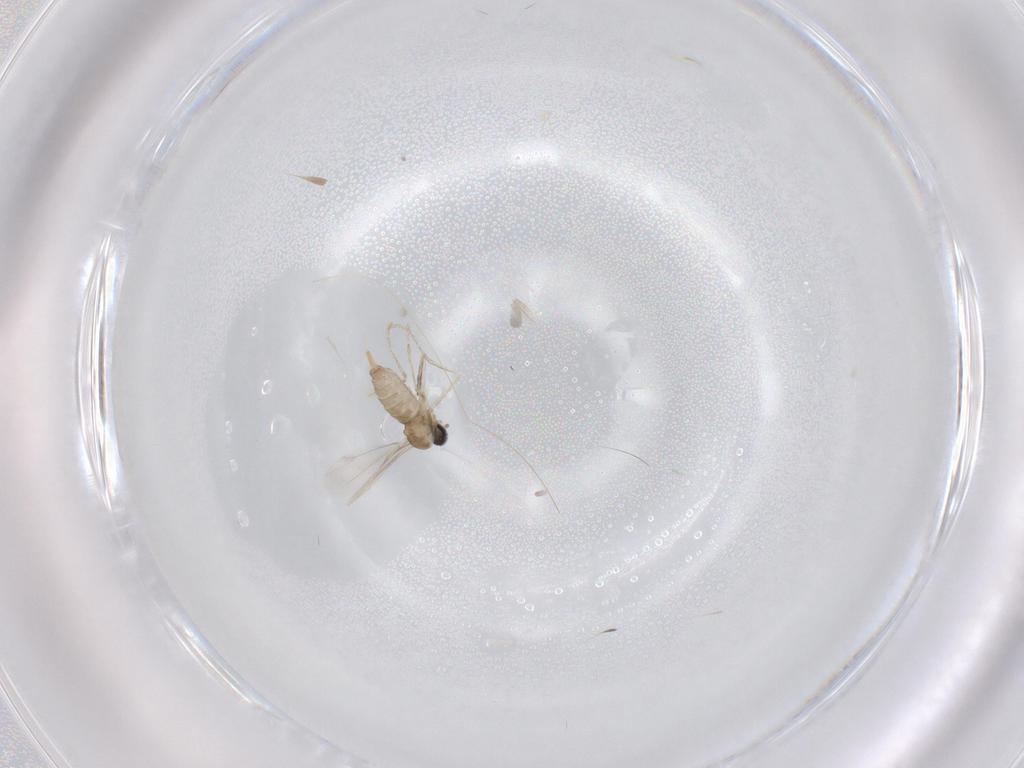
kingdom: Animalia
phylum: Arthropoda
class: Insecta
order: Diptera
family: Cecidomyiidae
